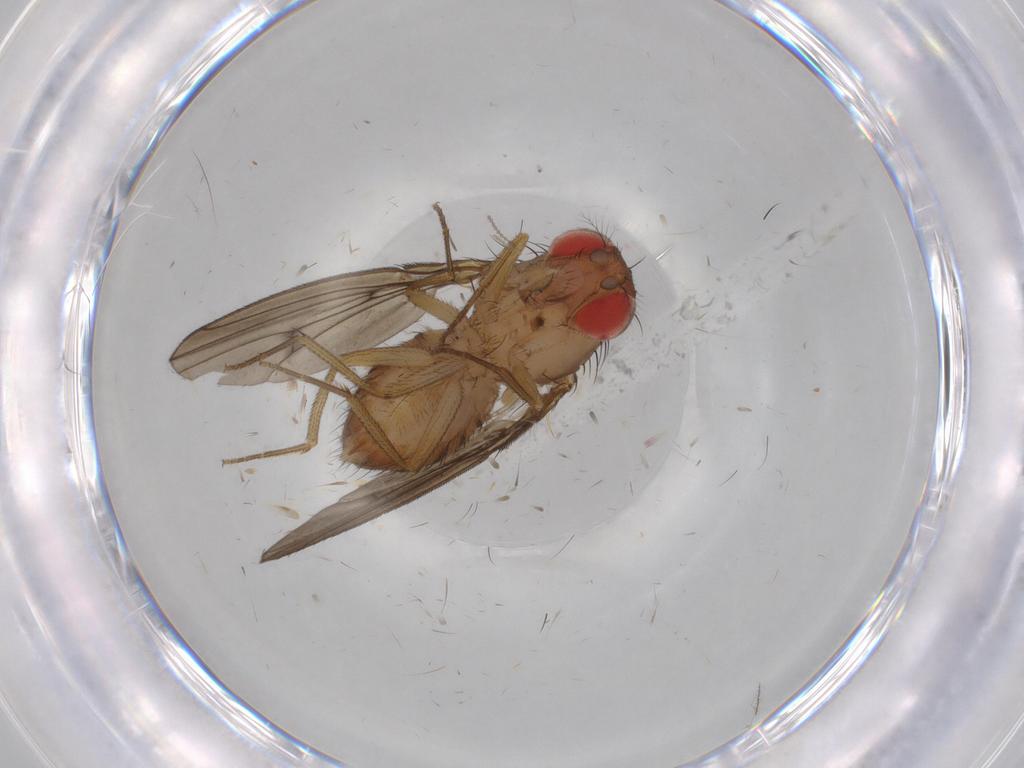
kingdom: Animalia
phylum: Arthropoda
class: Insecta
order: Diptera
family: Drosophilidae
